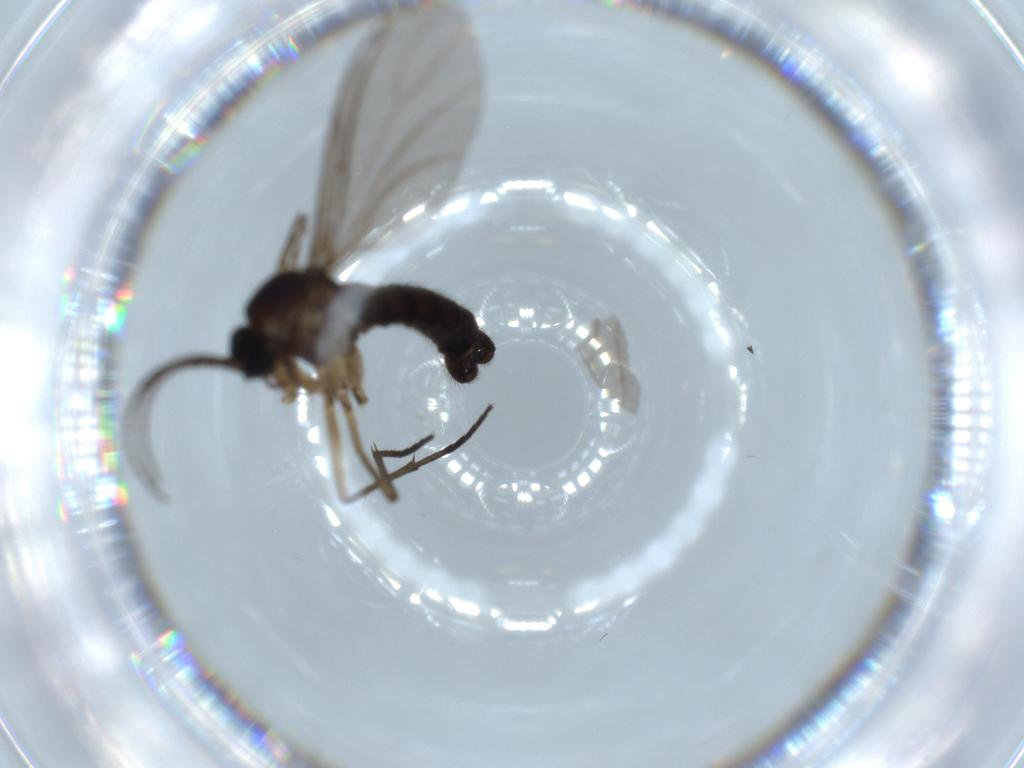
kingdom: Animalia
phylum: Arthropoda
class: Insecta
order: Diptera
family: Sciaridae
